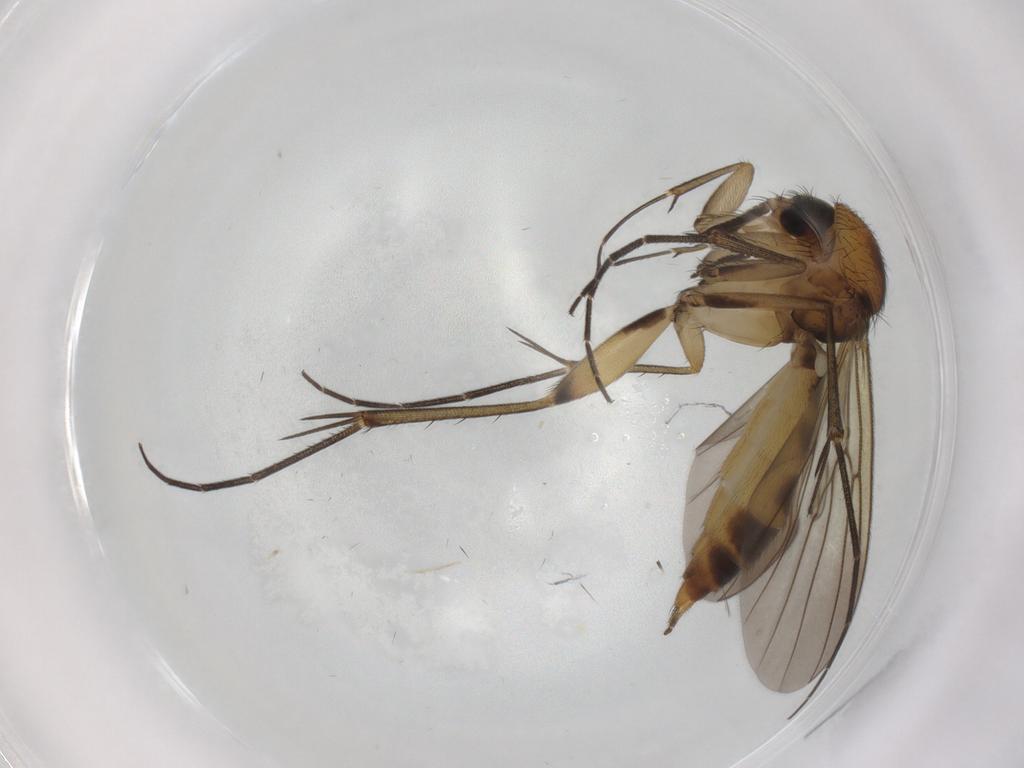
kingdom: Animalia
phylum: Arthropoda
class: Insecta
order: Diptera
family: Mycetophilidae
